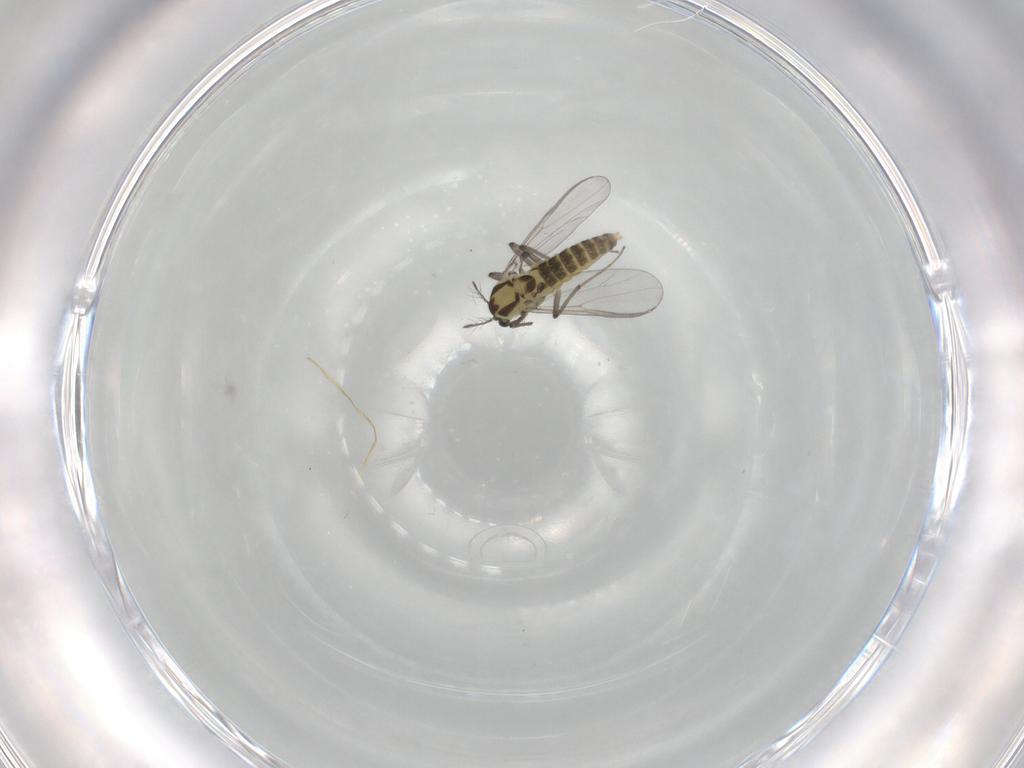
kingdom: Animalia
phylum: Arthropoda
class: Insecta
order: Diptera
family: Chironomidae
